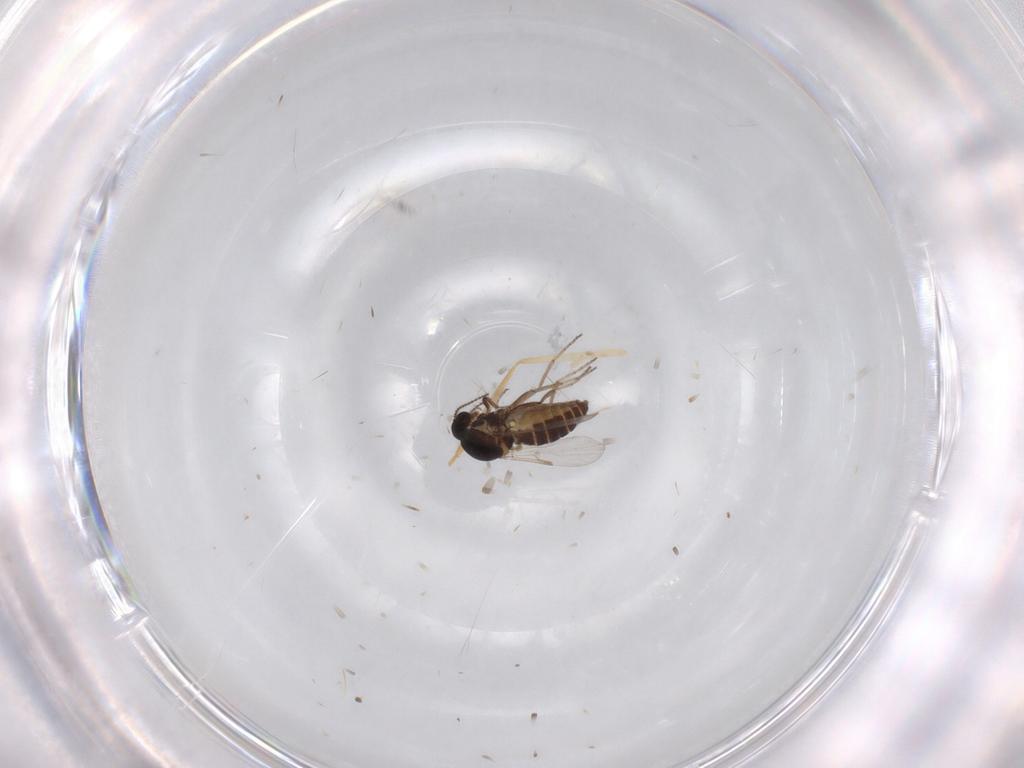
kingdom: Animalia
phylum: Arthropoda
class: Insecta
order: Diptera
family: Ceratopogonidae
